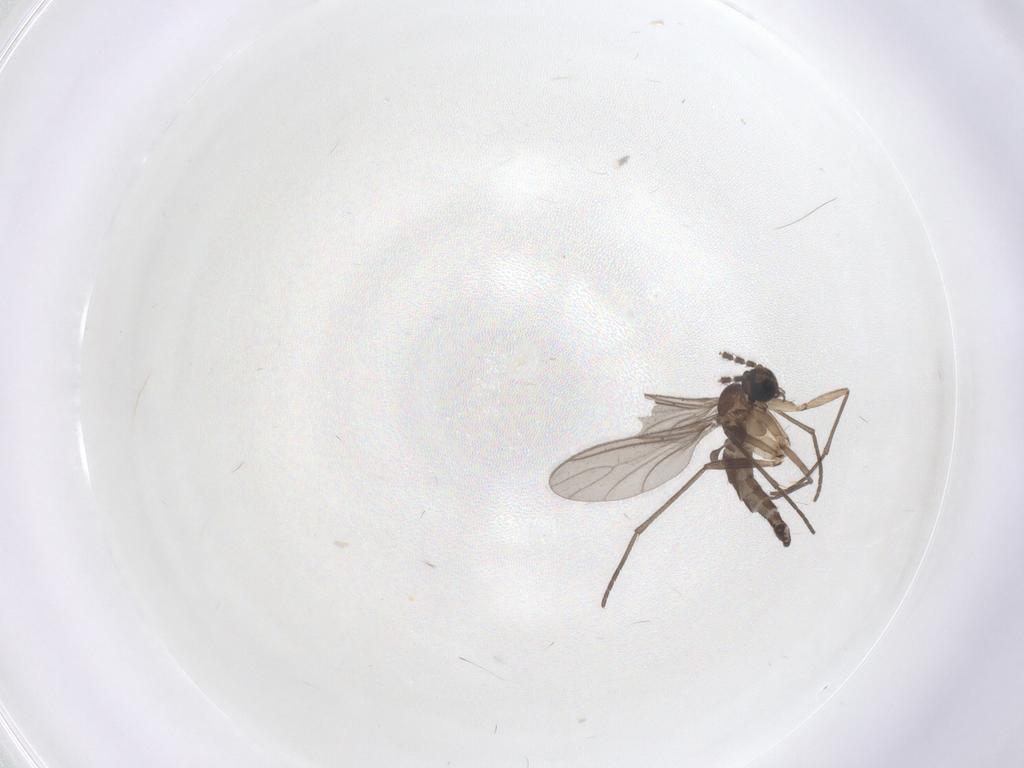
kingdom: Animalia
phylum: Arthropoda
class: Insecta
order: Diptera
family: Sciaridae
